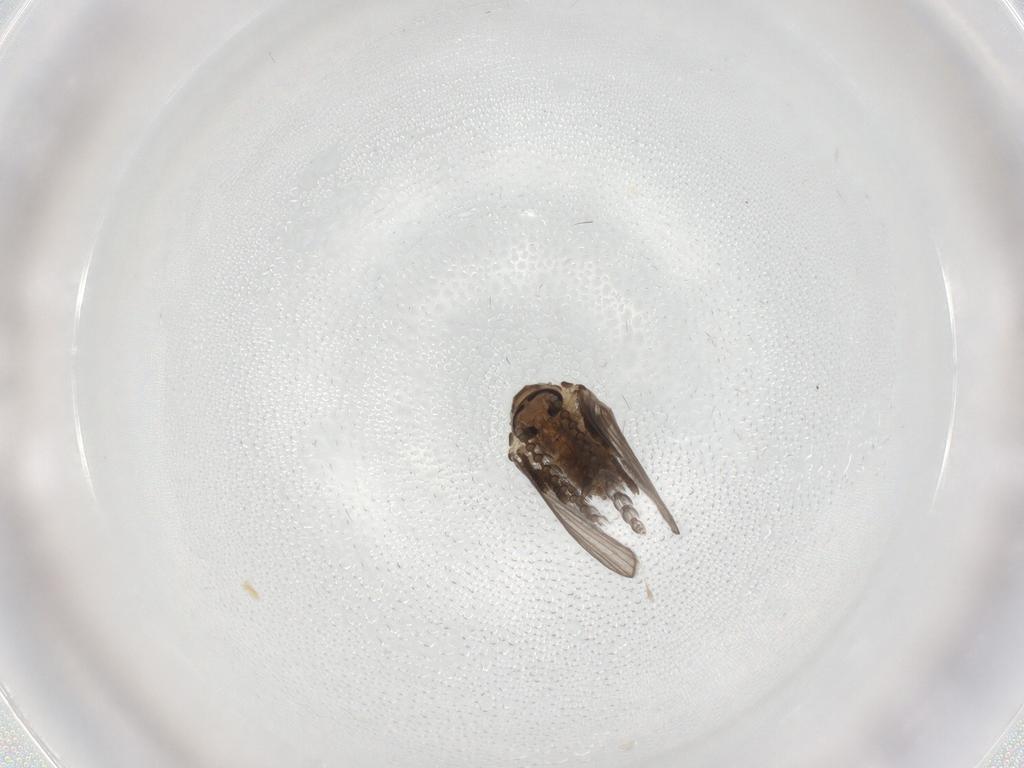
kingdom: Animalia
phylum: Arthropoda
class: Insecta
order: Diptera
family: Psychodidae
